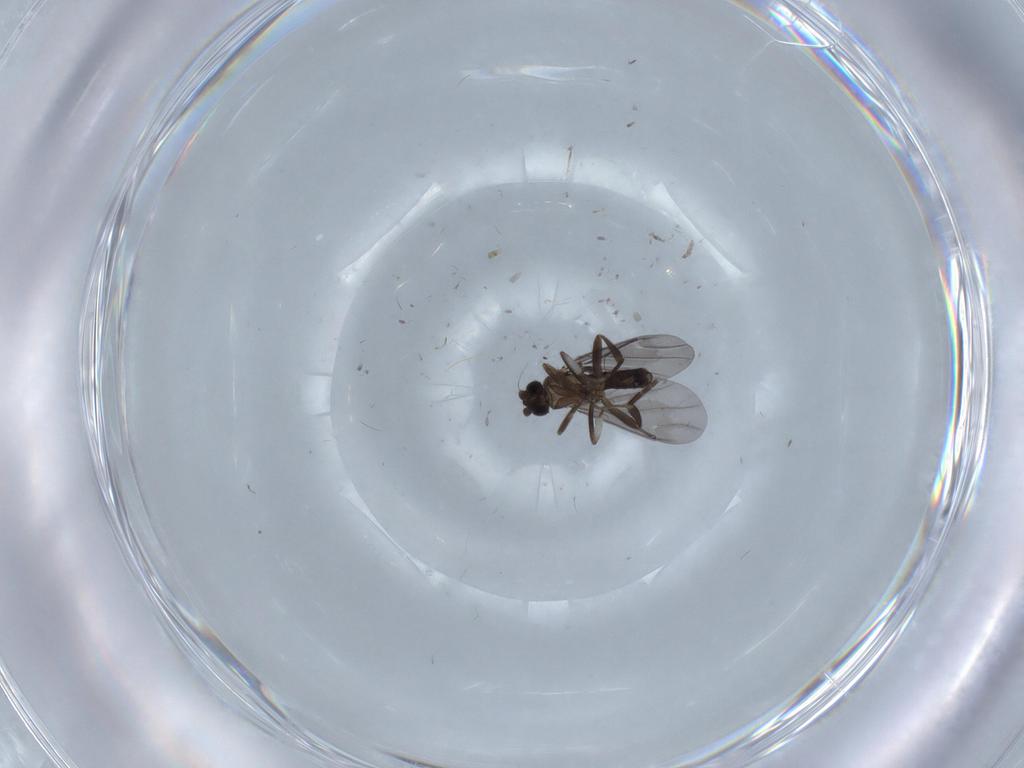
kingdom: Animalia
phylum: Arthropoda
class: Insecta
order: Diptera
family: Phoridae
